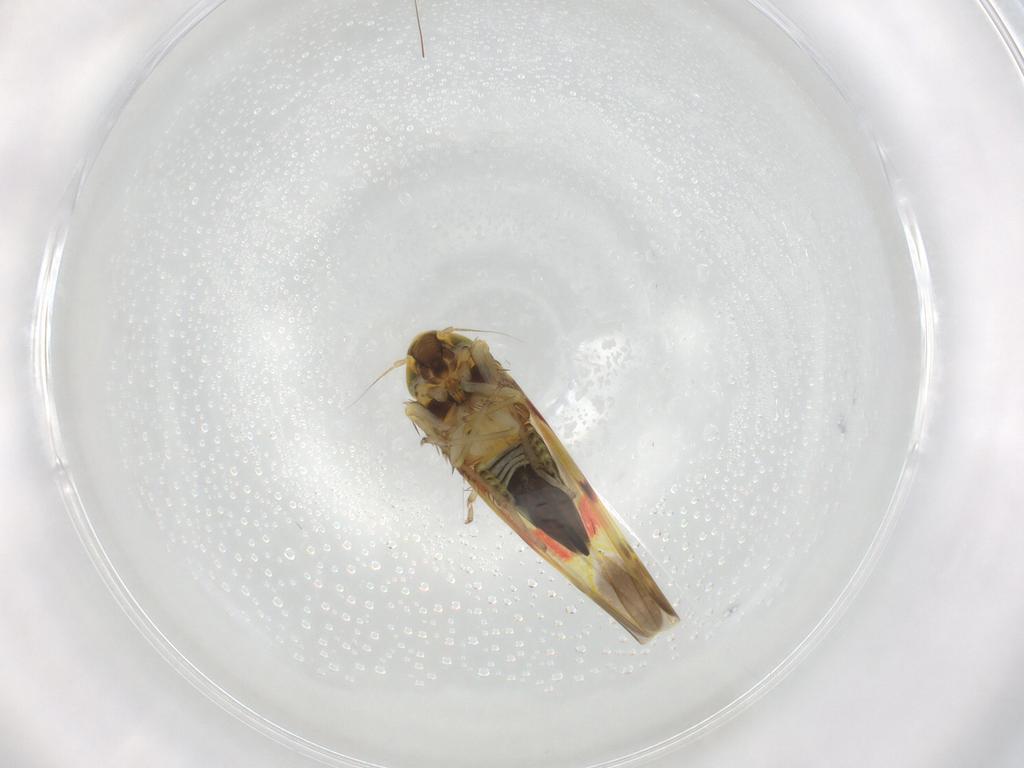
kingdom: Animalia
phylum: Arthropoda
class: Insecta
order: Hemiptera
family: Cicadellidae
